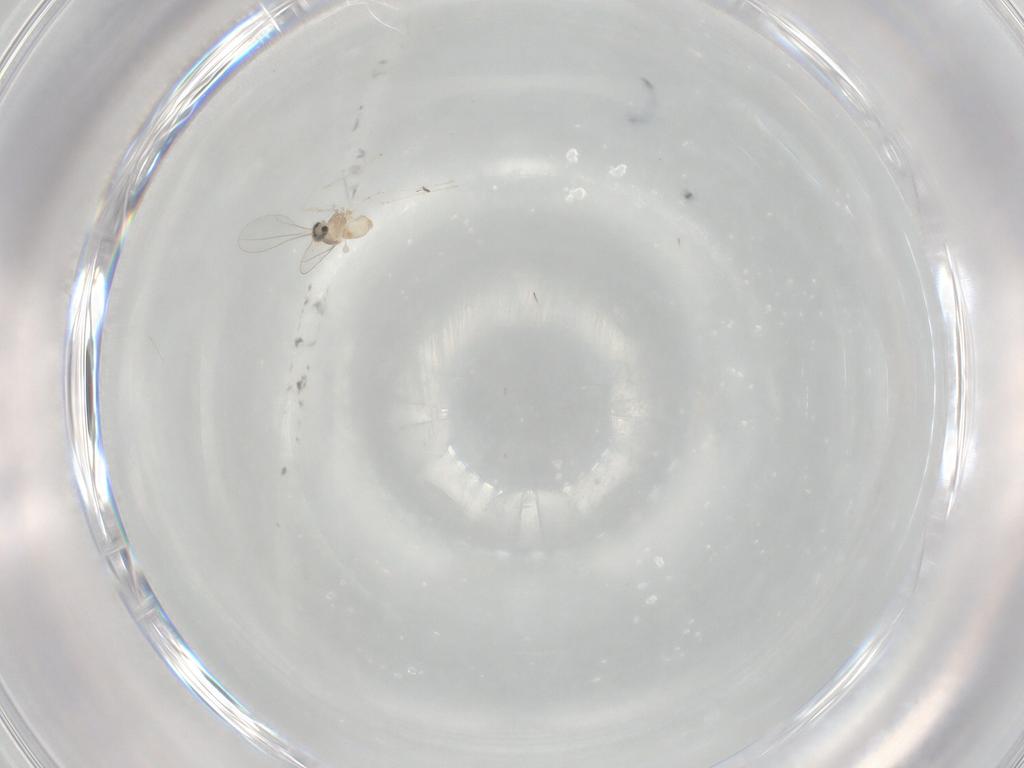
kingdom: Animalia
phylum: Arthropoda
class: Insecta
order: Diptera
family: Cecidomyiidae
